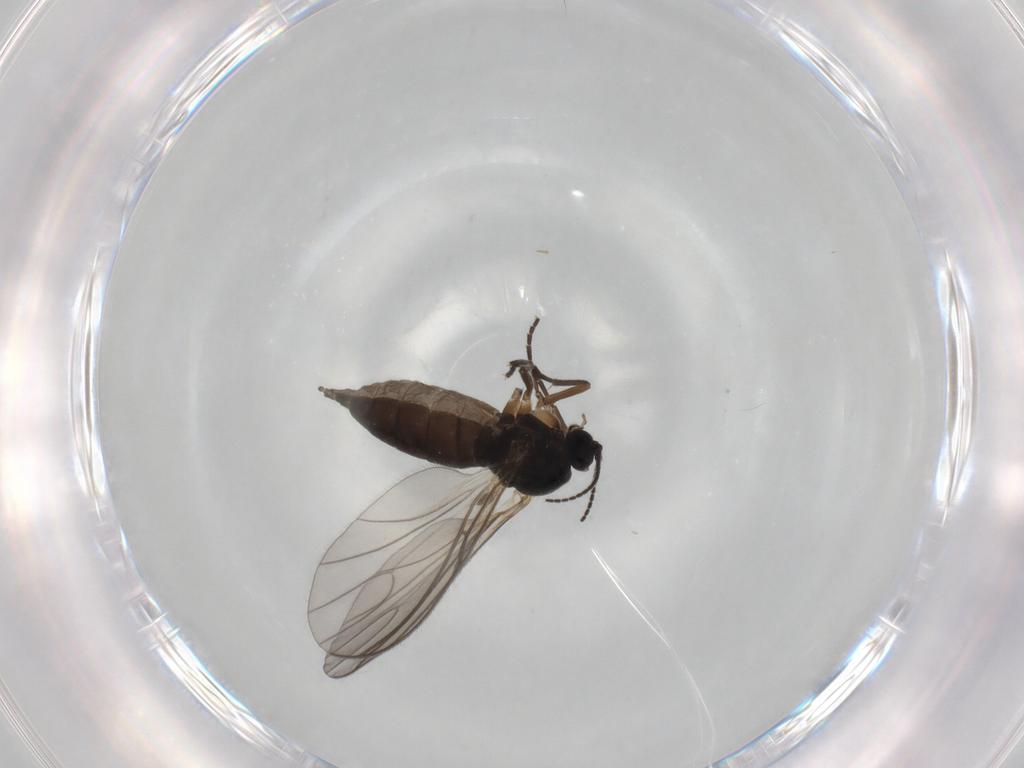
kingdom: Animalia
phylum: Arthropoda
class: Insecta
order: Diptera
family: Sciaridae
